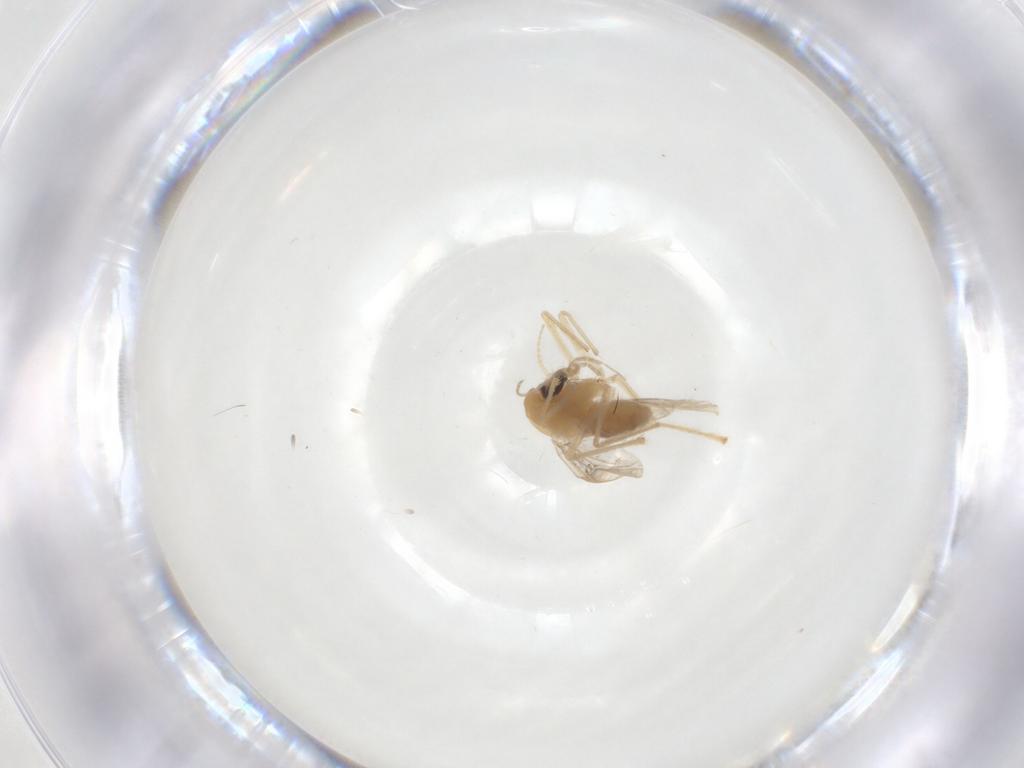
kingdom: Animalia
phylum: Arthropoda
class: Insecta
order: Diptera
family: Chironomidae
